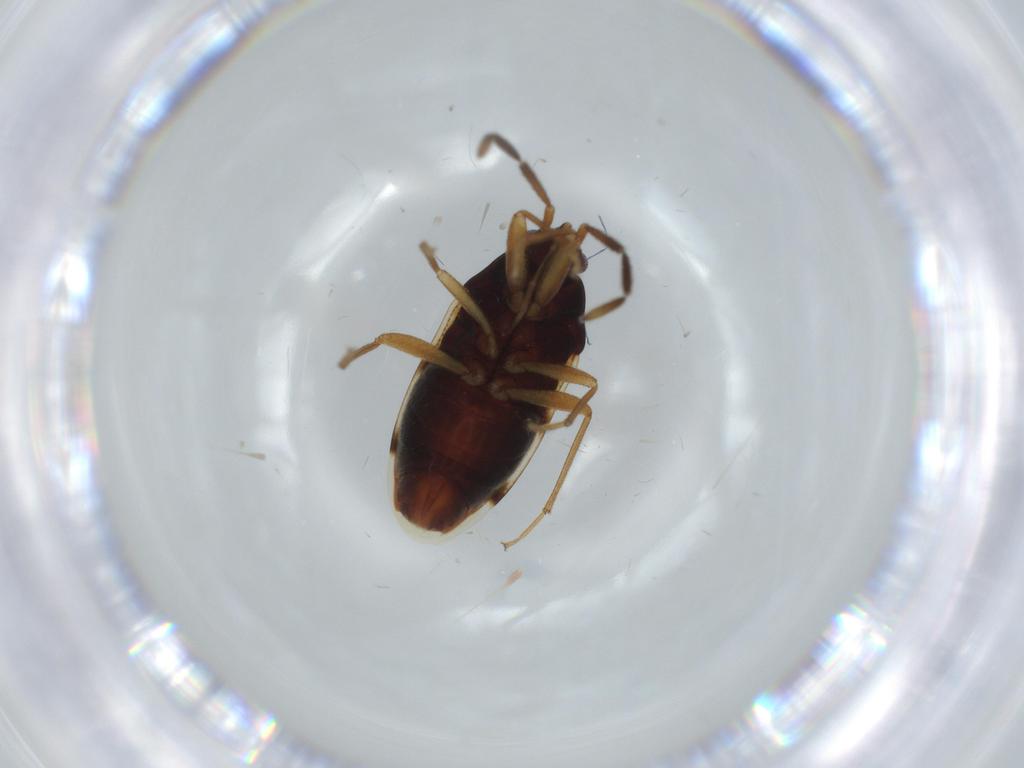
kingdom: Animalia
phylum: Arthropoda
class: Insecta
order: Hemiptera
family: Rhyparochromidae
